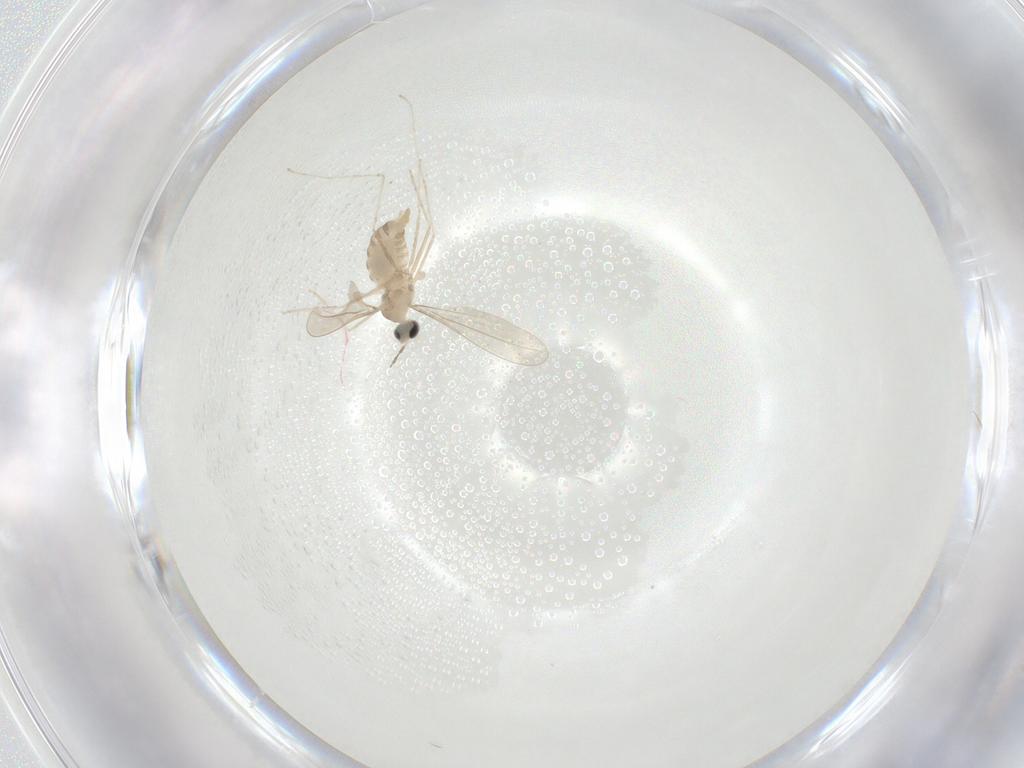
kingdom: Animalia
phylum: Arthropoda
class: Insecta
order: Diptera
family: Cecidomyiidae
